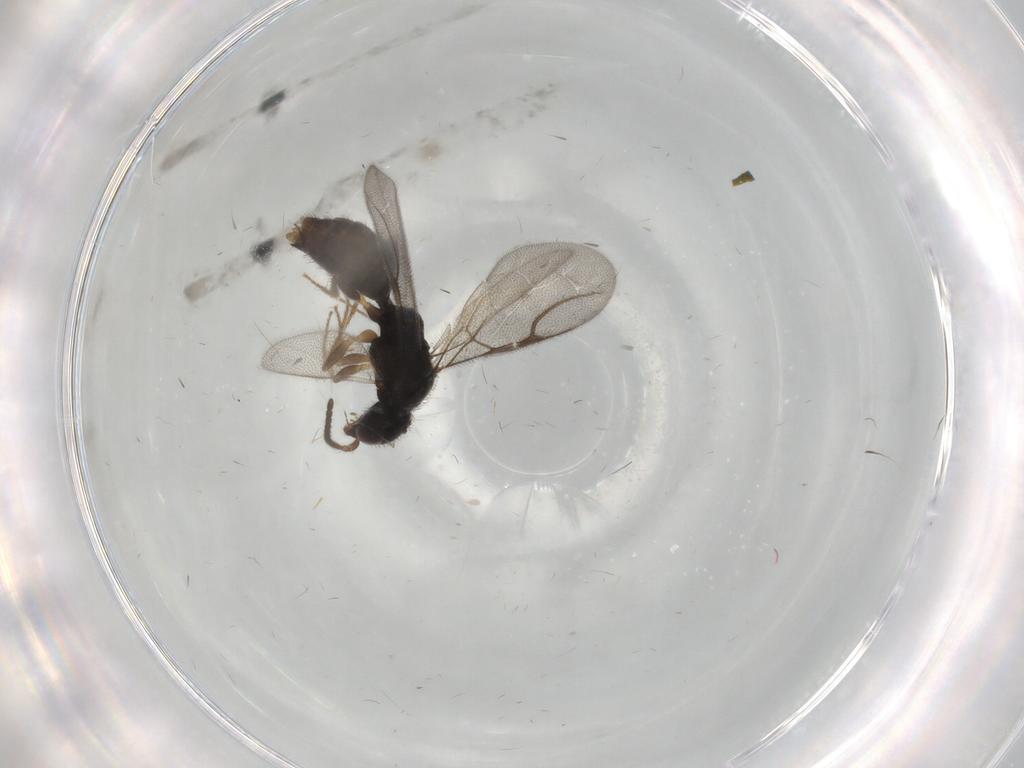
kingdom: Animalia
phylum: Arthropoda
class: Insecta
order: Hymenoptera
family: Bethylidae
